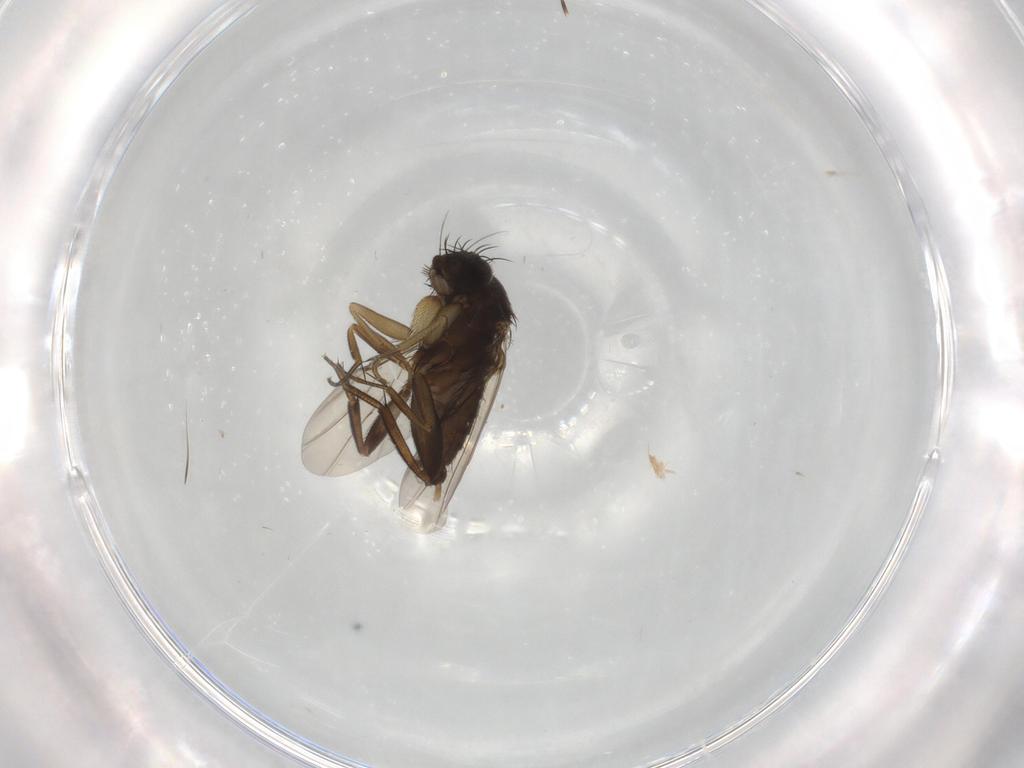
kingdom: Animalia
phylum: Arthropoda
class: Insecta
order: Diptera
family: Phoridae
